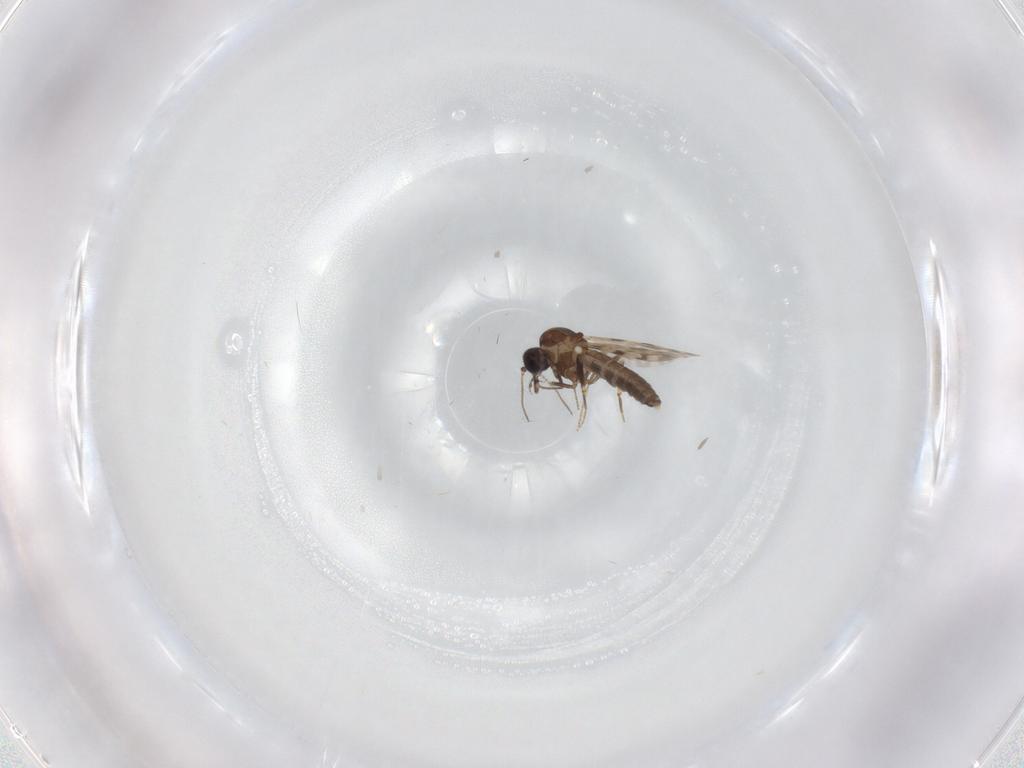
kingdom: Animalia
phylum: Arthropoda
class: Insecta
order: Diptera
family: Ceratopogonidae
